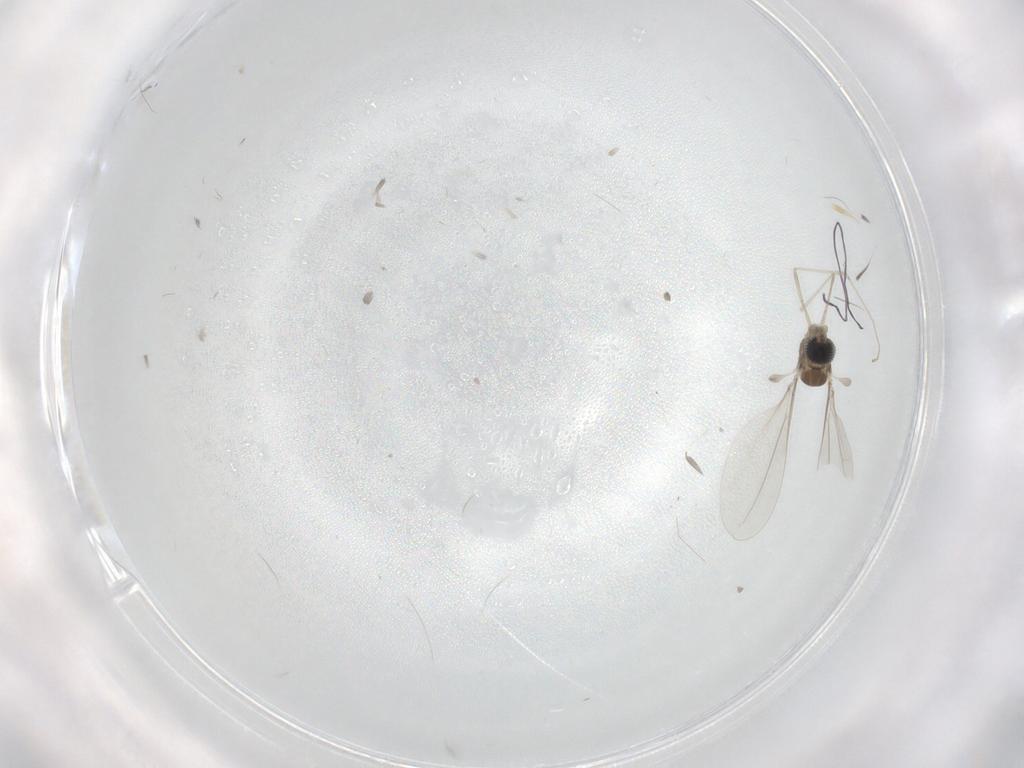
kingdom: Animalia
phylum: Arthropoda
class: Insecta
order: Diptera
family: Cecidomyiidae
